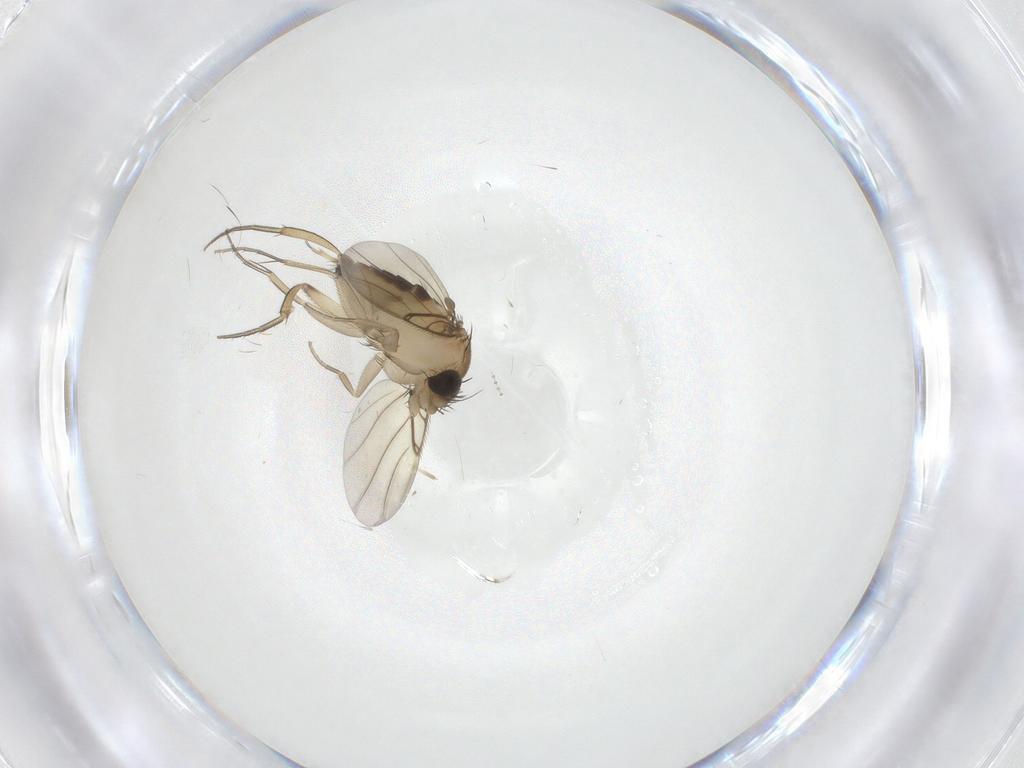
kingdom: Animalia
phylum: Arthropoda
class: Insecta
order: Diptera
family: Phoridae
